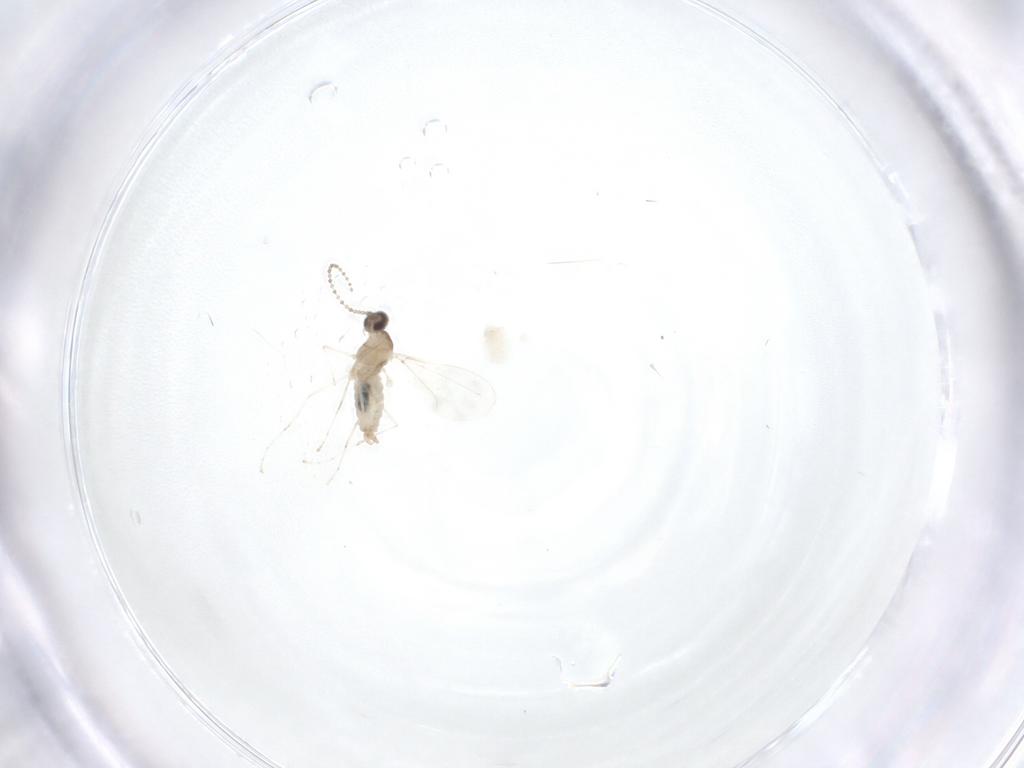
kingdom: Animalia
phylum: Arthropoda
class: Insecta
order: Diptera
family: Cecidomyiidae
